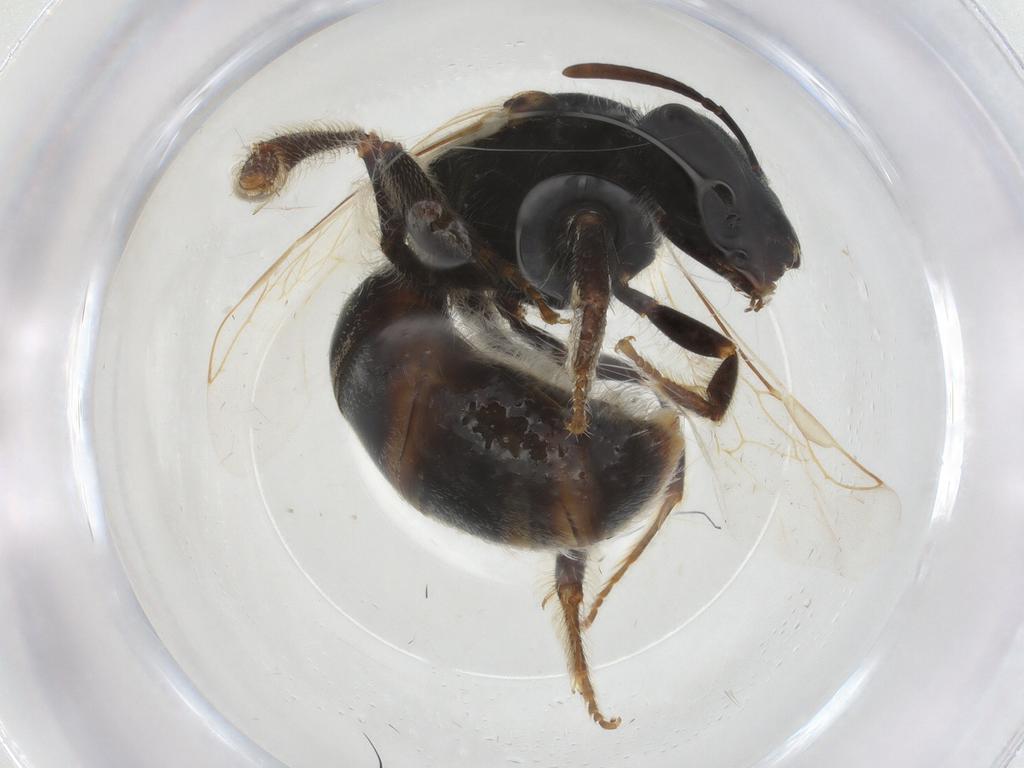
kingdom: Animalia
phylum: Arthropoda
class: Insecta
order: Hymenoptera
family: Halictidae
